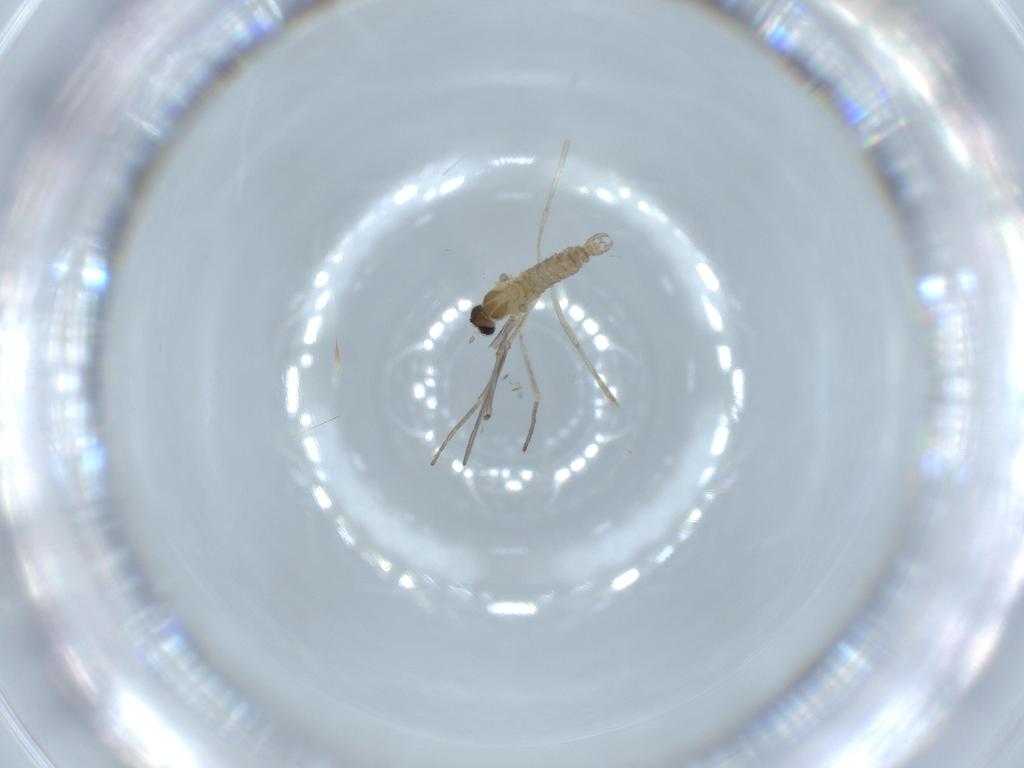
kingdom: Animalia
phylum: Arthropoda
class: Insecta
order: Diptera
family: Cecidomyiidae
